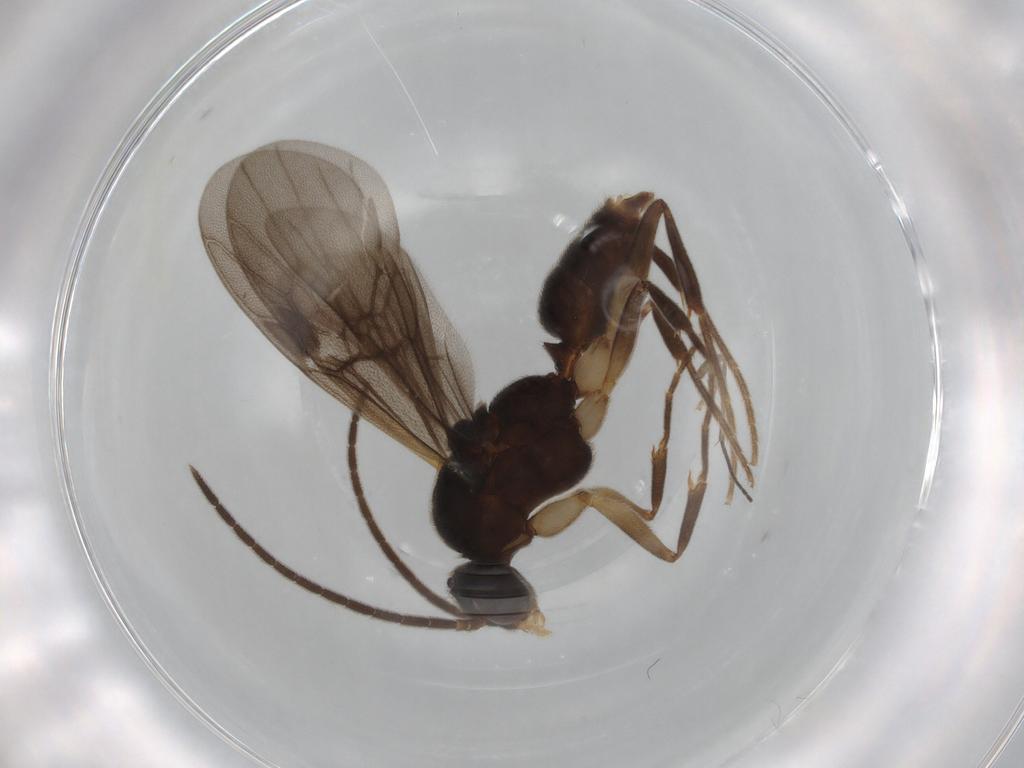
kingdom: Animalia
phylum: Arthropoda
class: Insecta
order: Hymenoptera
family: Formicidae
